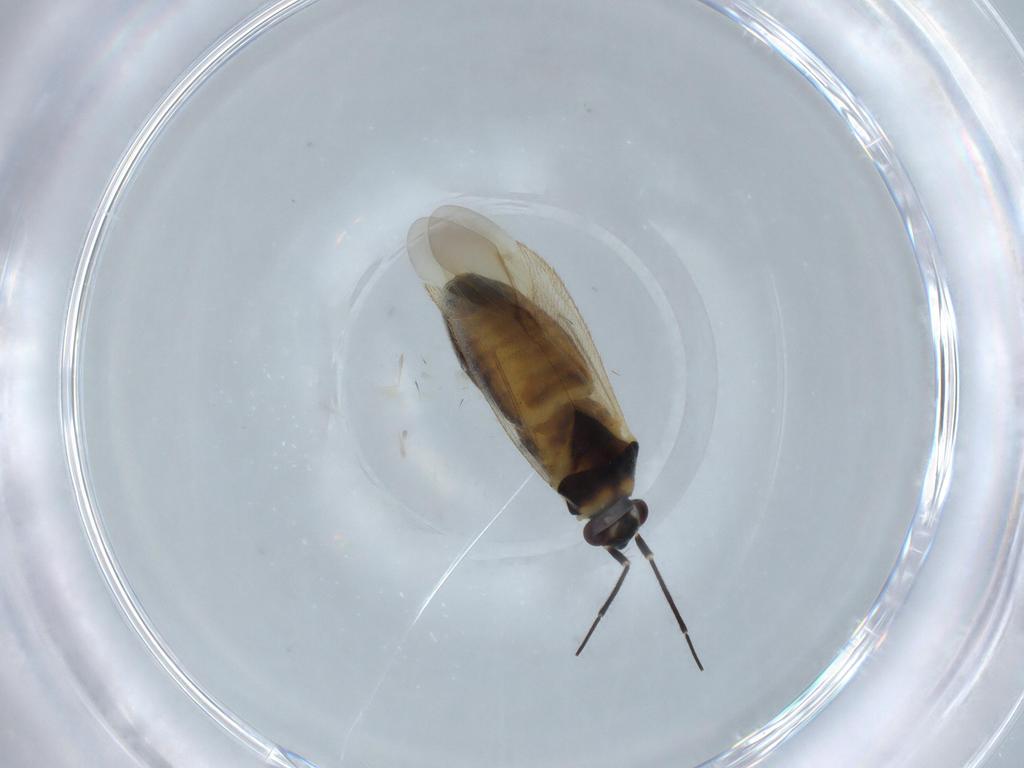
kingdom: Animalia
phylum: Arthropoda
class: Insecta
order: Hemiptera
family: Miridae
